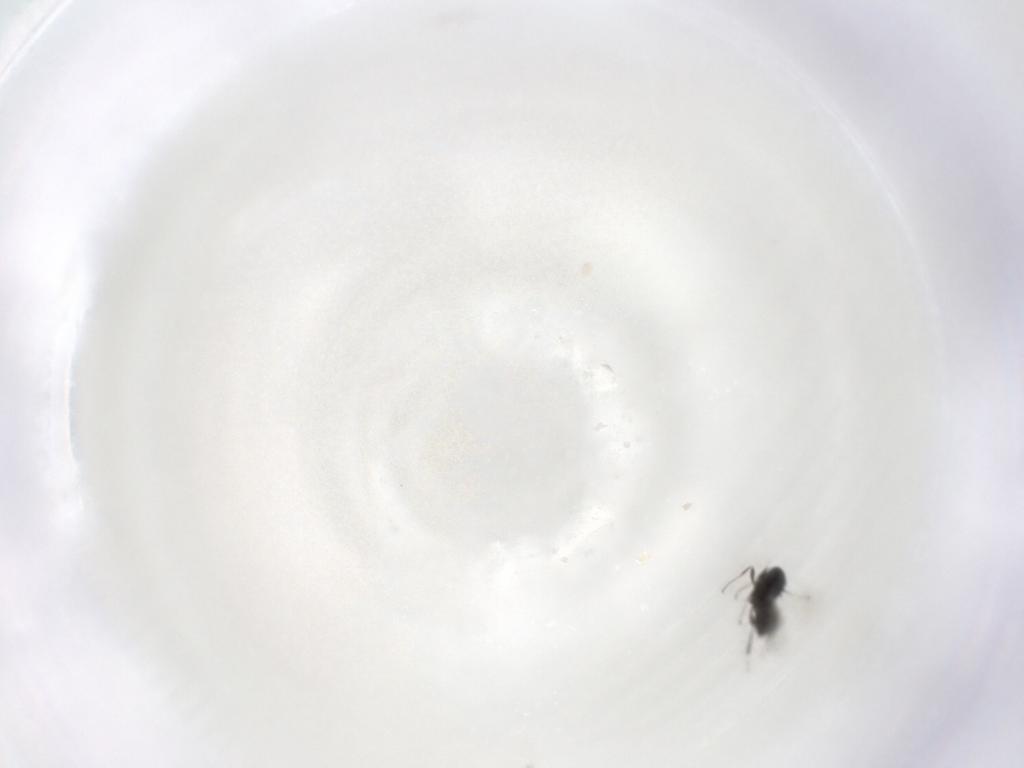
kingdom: Animalia
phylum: Arthropoda
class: Insecta
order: Hymenoptera
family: Scelionidae
